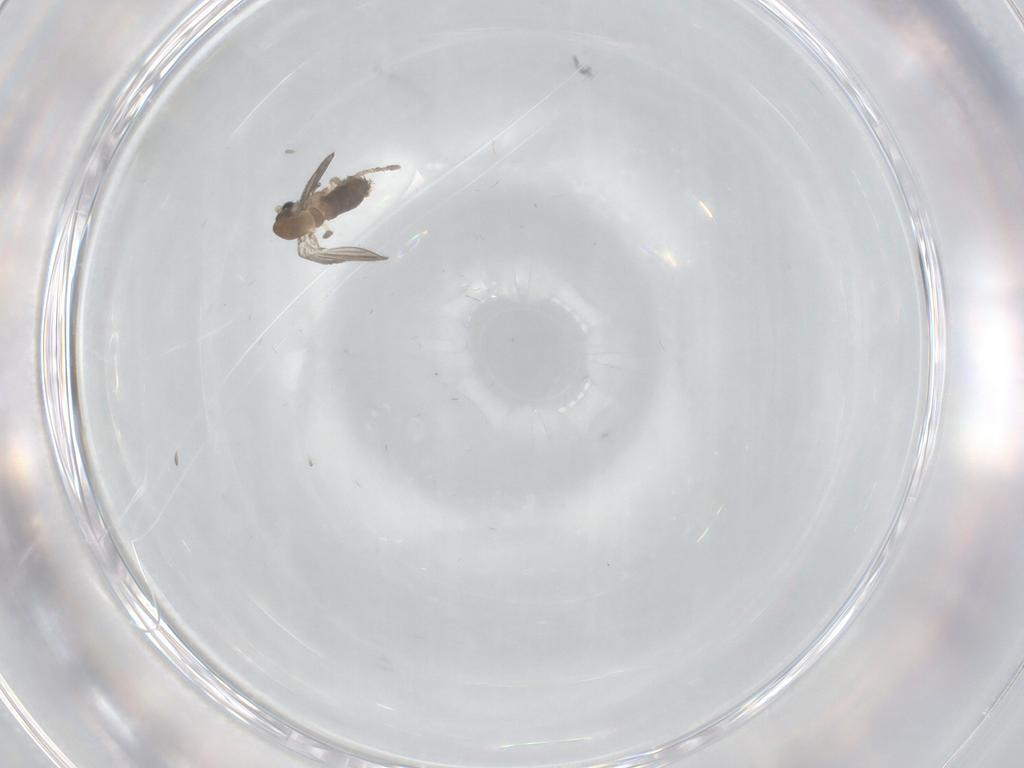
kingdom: Animalia
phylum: Arthropoda
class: Insecta
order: Diptera
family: Psychodidae
